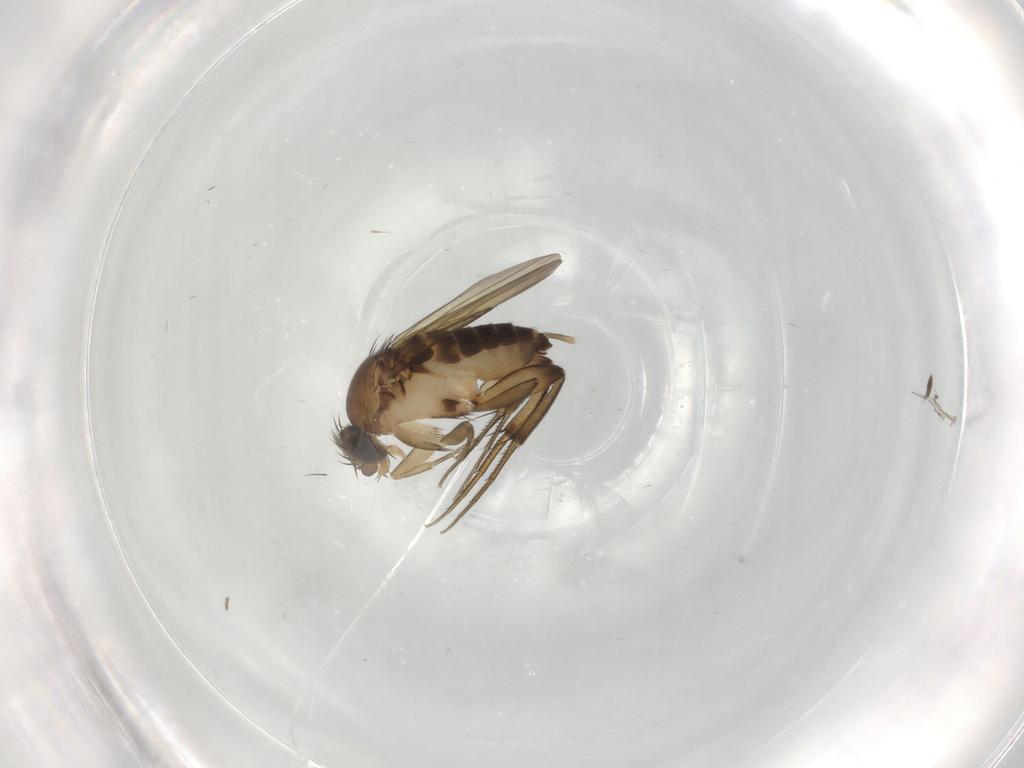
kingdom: Animalia
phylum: Arthropoda
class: Insecta
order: Diptera
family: Phoridae
